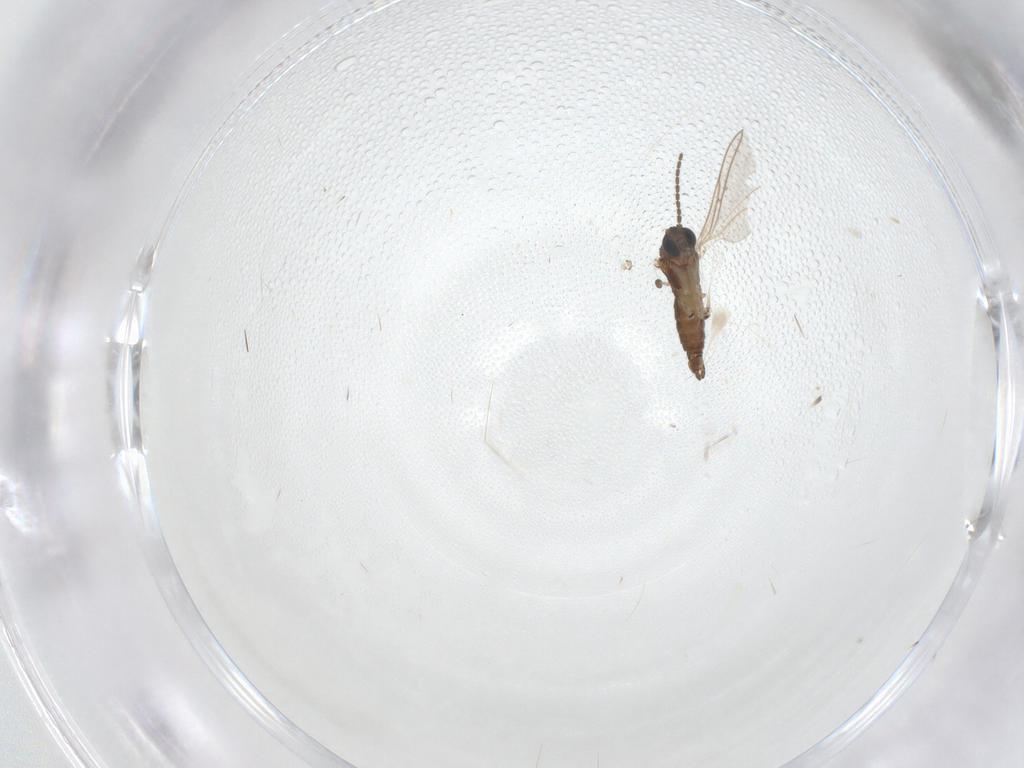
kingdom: Animalia
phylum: Arthropoda
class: Insecta
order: Diptera
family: Sciaridae
